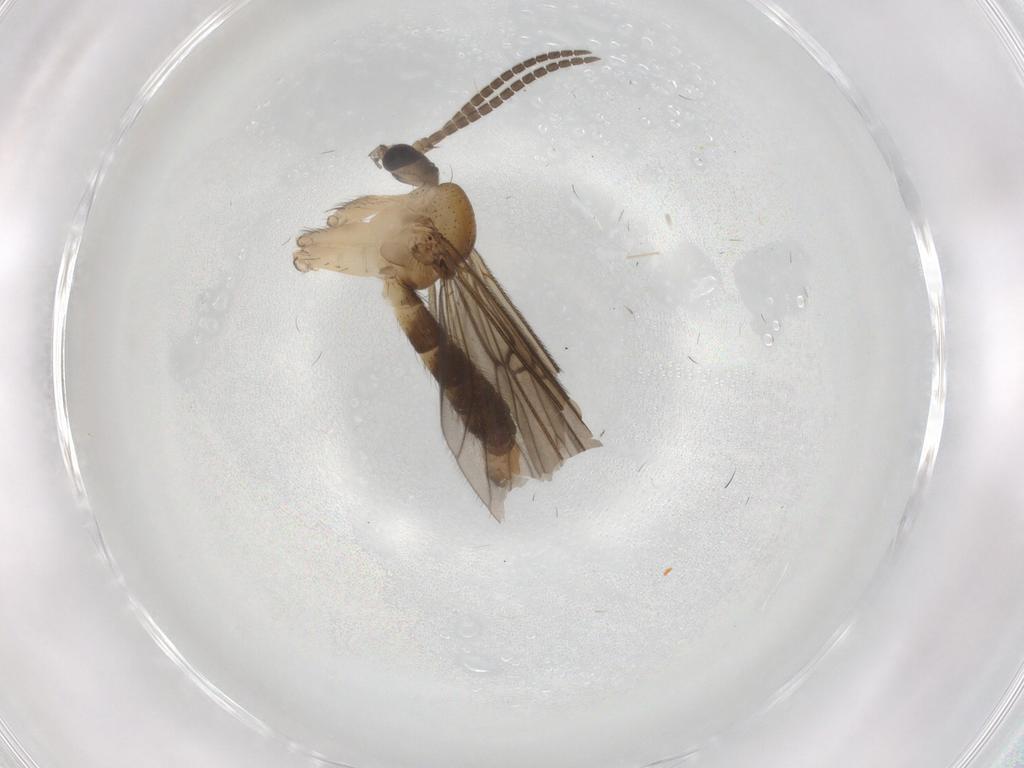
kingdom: Animalia
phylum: Arthropoda
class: Insecta
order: Diptera
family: Mycetophilidae
